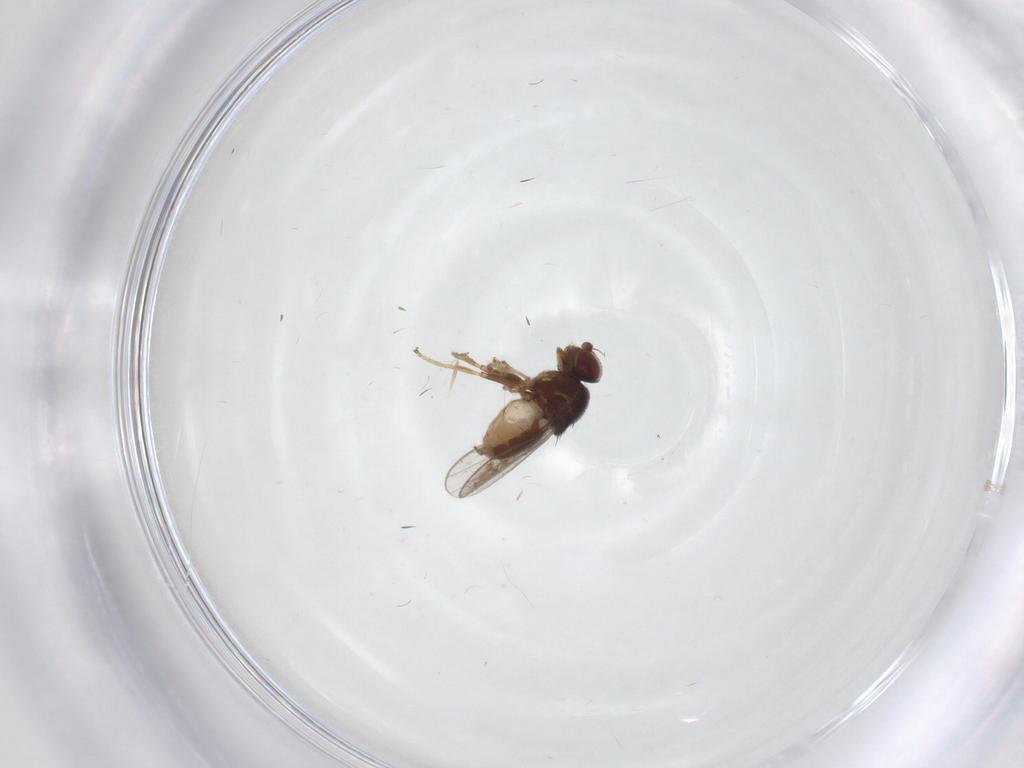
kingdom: Animalia
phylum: Arthropoda
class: Insecta
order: Diptera
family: Chloropidae
